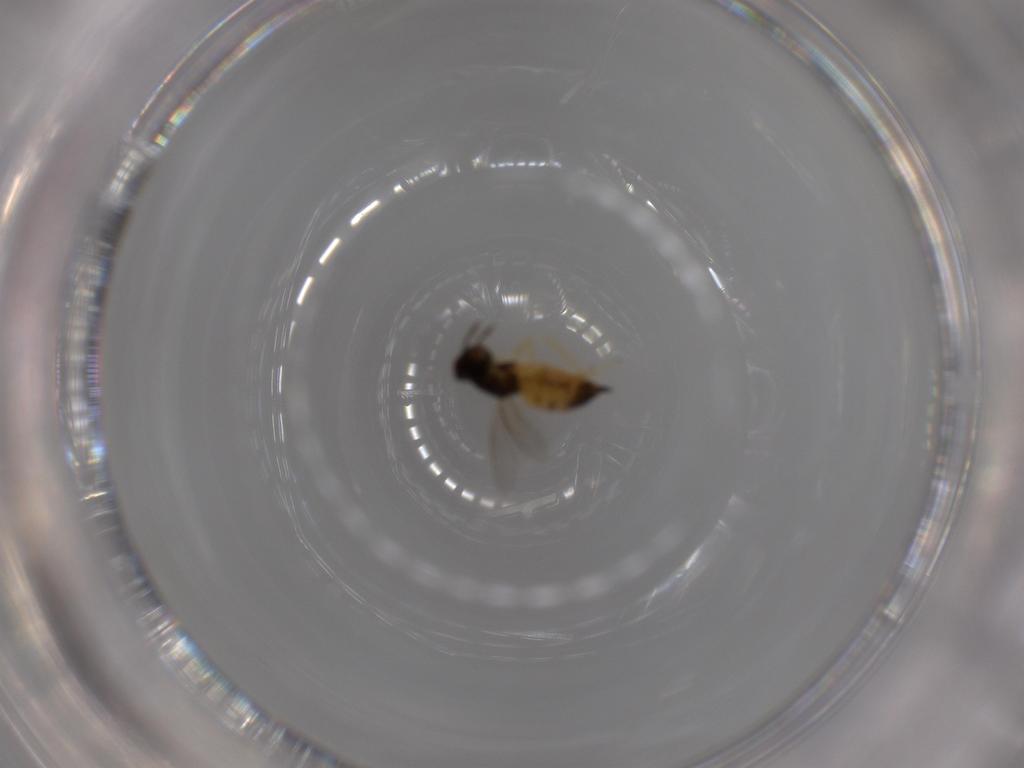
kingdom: Animalia
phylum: Arthropoda
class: Insecta
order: Hymenoptera
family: Eulophidae
